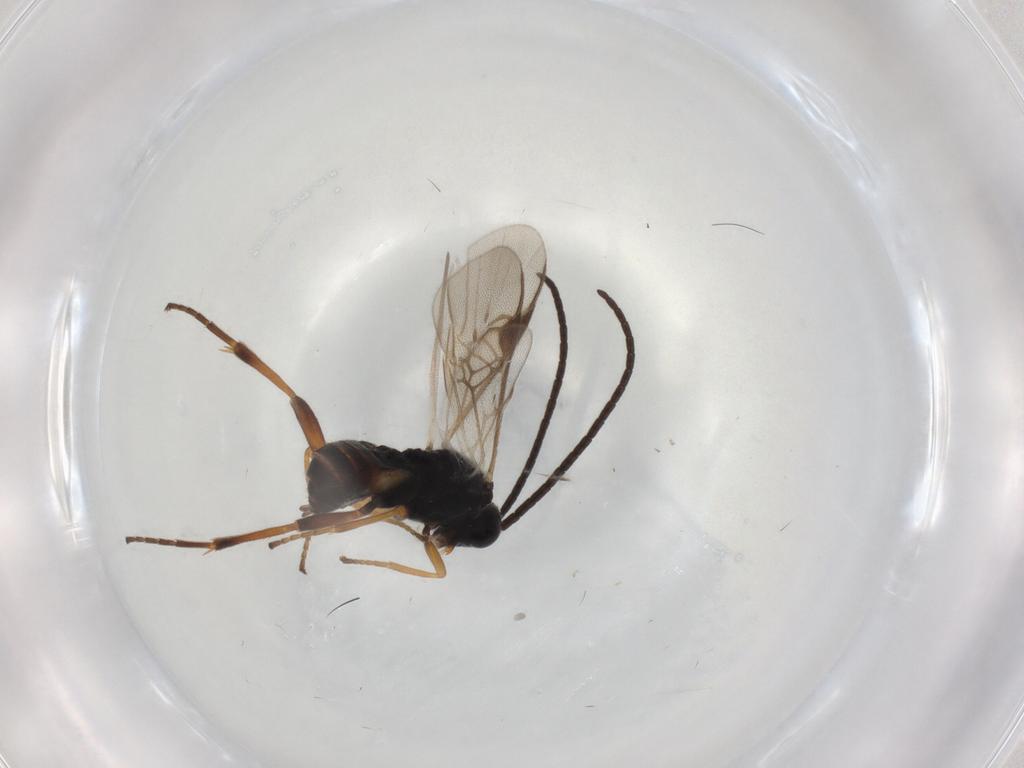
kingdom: Animalia
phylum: Arthropoda
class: Insecta
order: Hymenoptera
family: Braconidae
